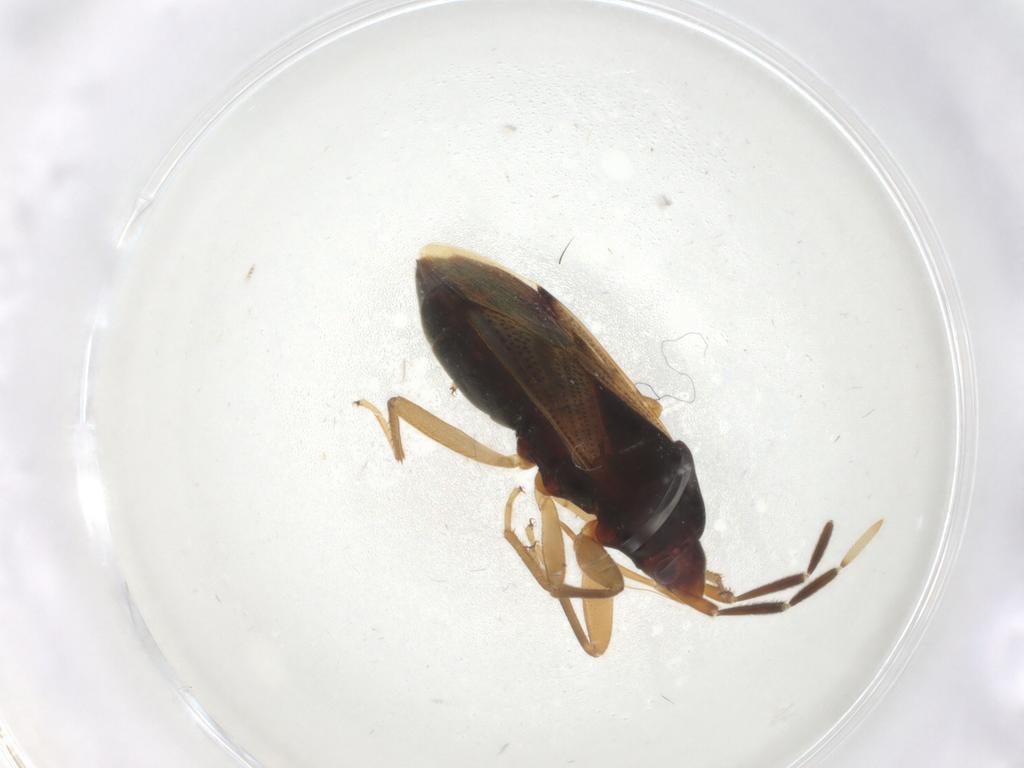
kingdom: Animalia
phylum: Arthropoda
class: Insecta
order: Hemiptera
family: Rhyparochromidae
